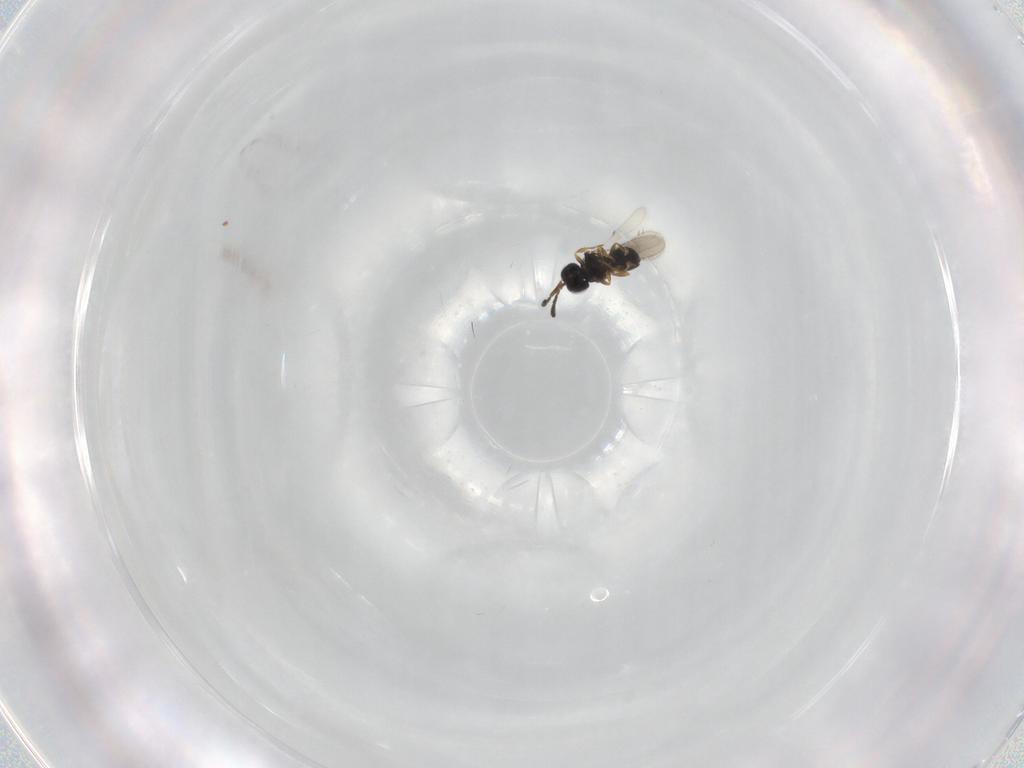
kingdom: Animalia
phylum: Arthropoda
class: Insecta
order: Hymenoptera
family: Scelionidae
